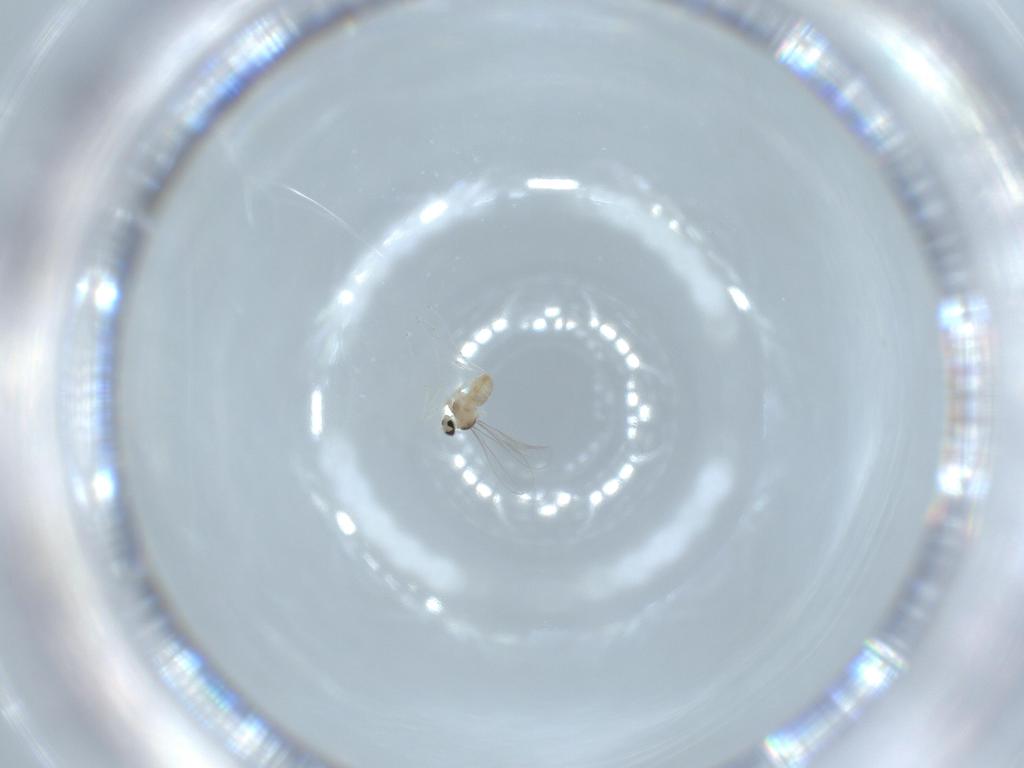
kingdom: Animalia
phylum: Arthropoda
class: Insecta
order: Diptera
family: Cecidomyiidae
